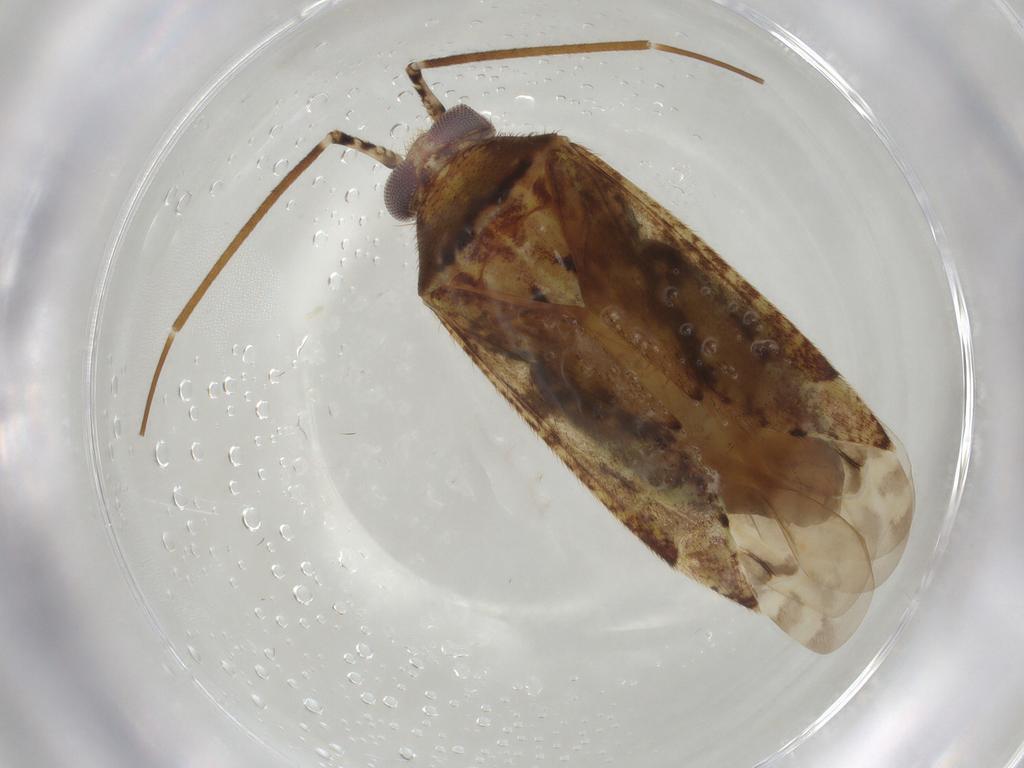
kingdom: Animalia
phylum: Arthropoda
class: Insecta
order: Hemiptera
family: Miridae
